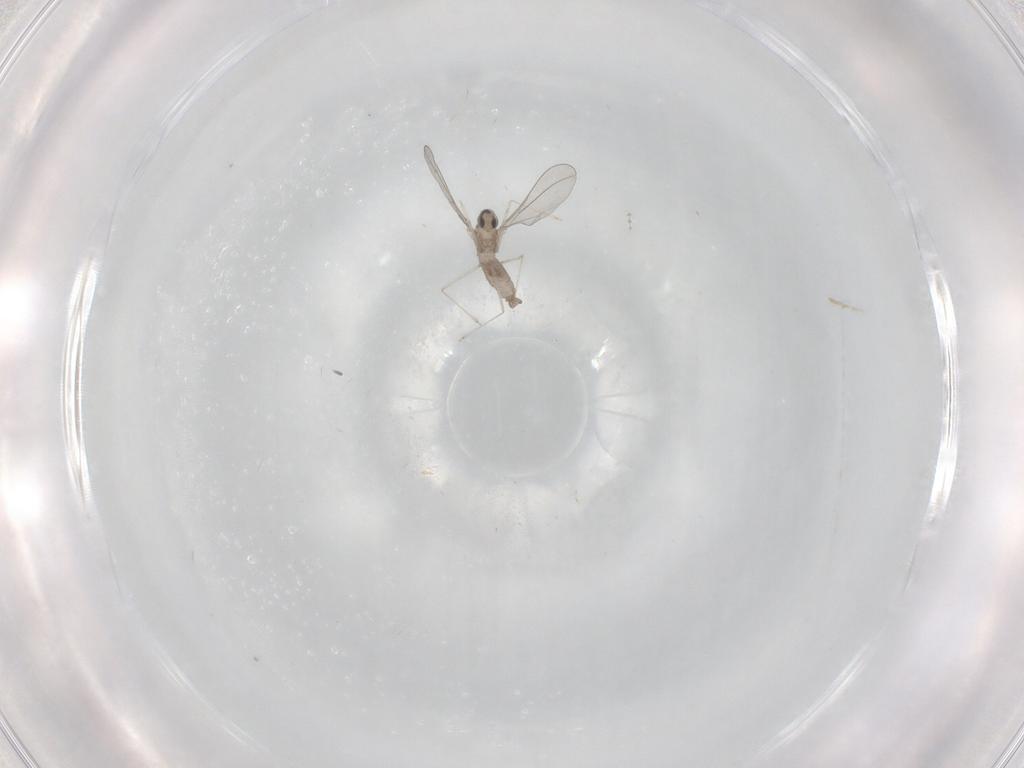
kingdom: Animalia
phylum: Arthropoda
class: Insecta
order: Diptera
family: Cecidomyiidae
